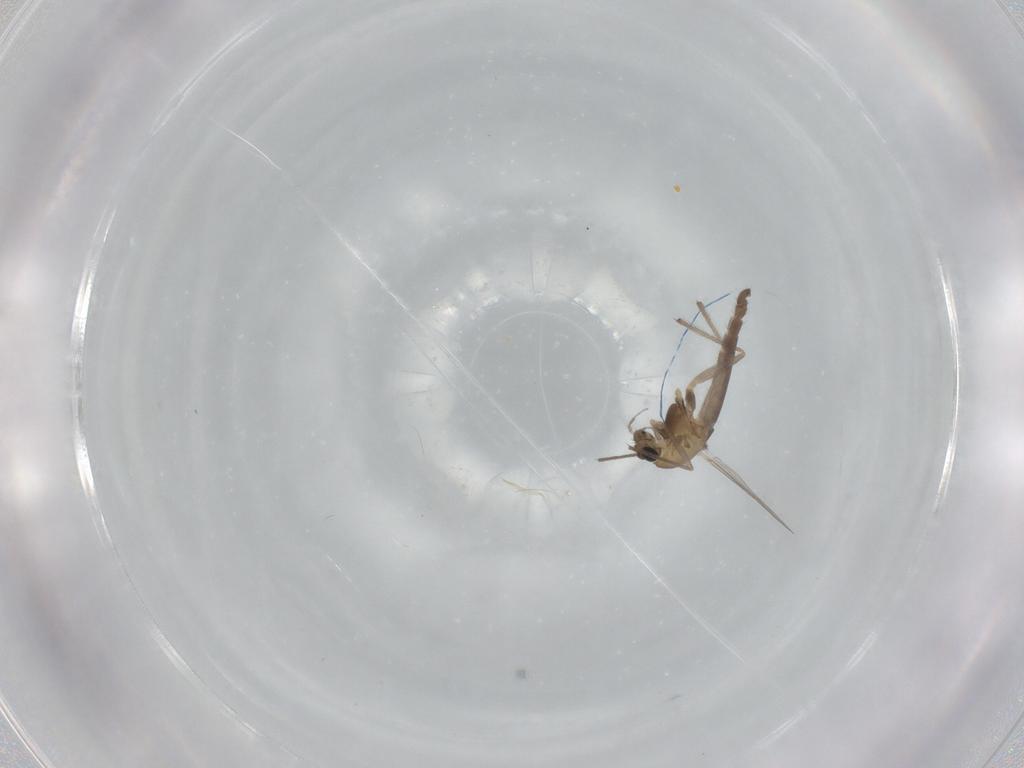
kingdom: Animalia
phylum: Arthropoda
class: Insecta
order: Diptera
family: Chironomidae
